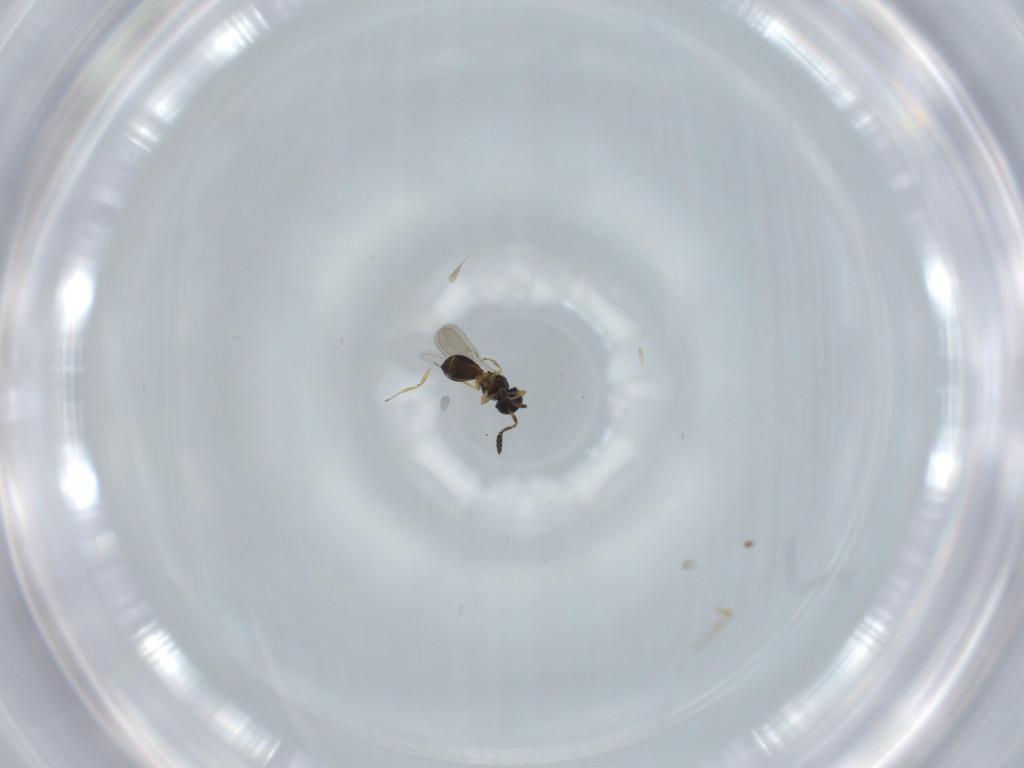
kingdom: Animalia
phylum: Arthropoda
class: Insecta
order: Hymenoptera
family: Scelionidae
